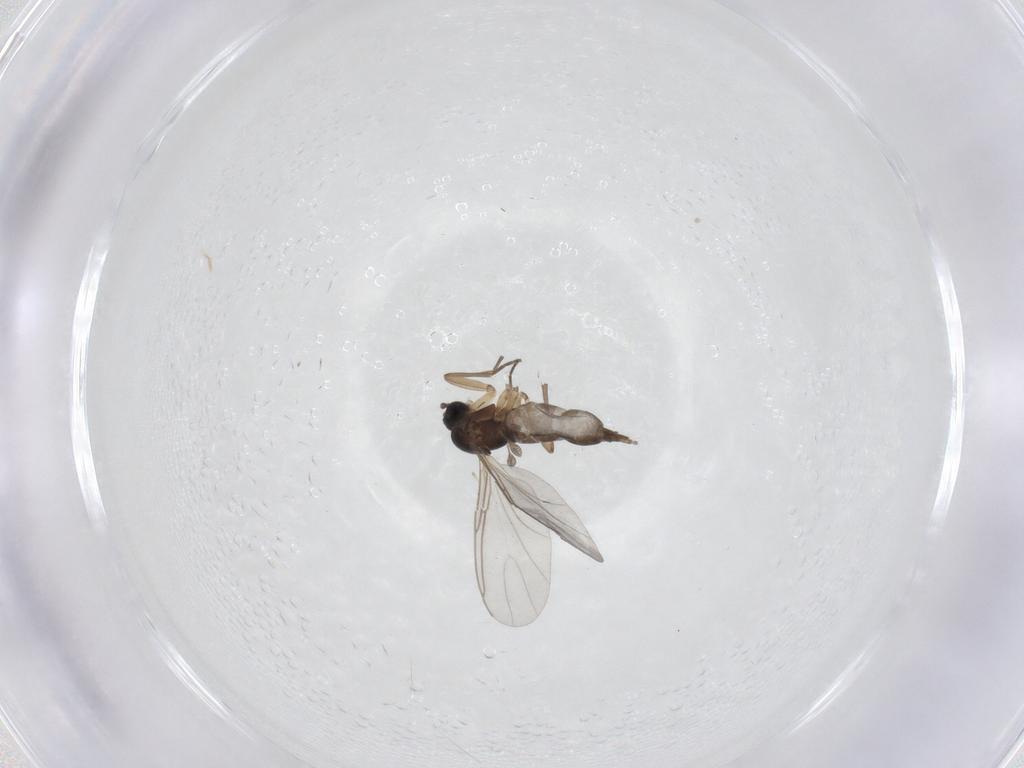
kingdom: Animalia
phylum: Arthropoda
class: Insecta
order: Diptera
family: Sciaridae
